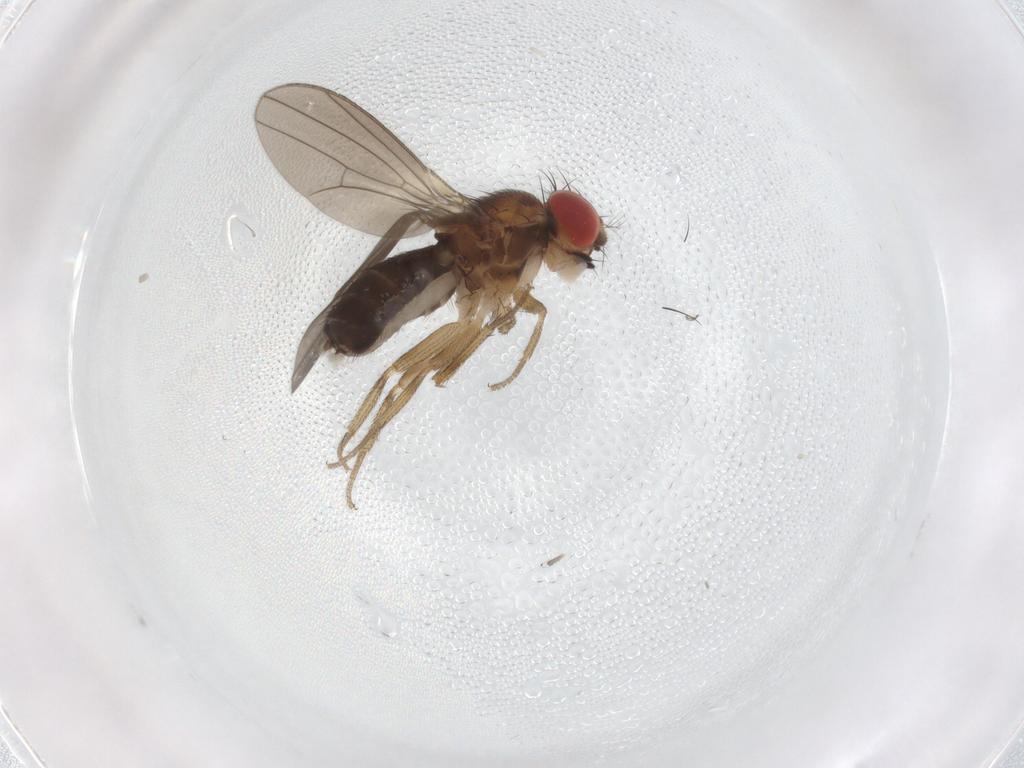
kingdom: Animalia
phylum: Arthropoda
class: Insecta
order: Diptera
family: Drosophilidae
